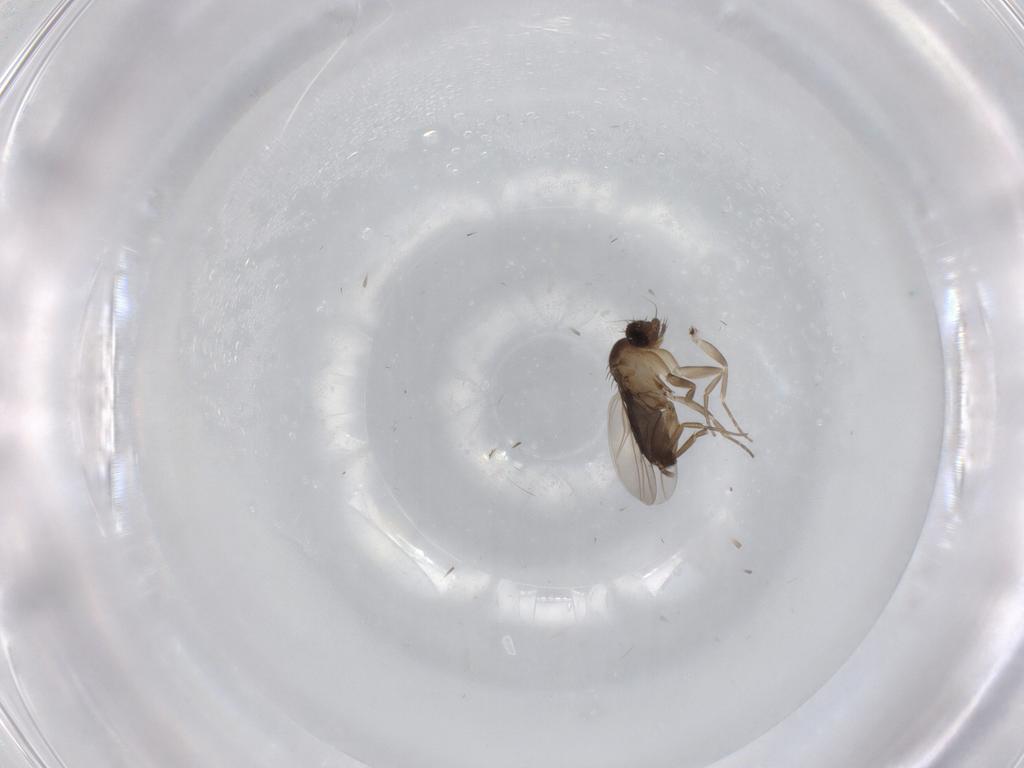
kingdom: Animalia
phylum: Arthropoda
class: Insecta
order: Diptera
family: Phoridae
